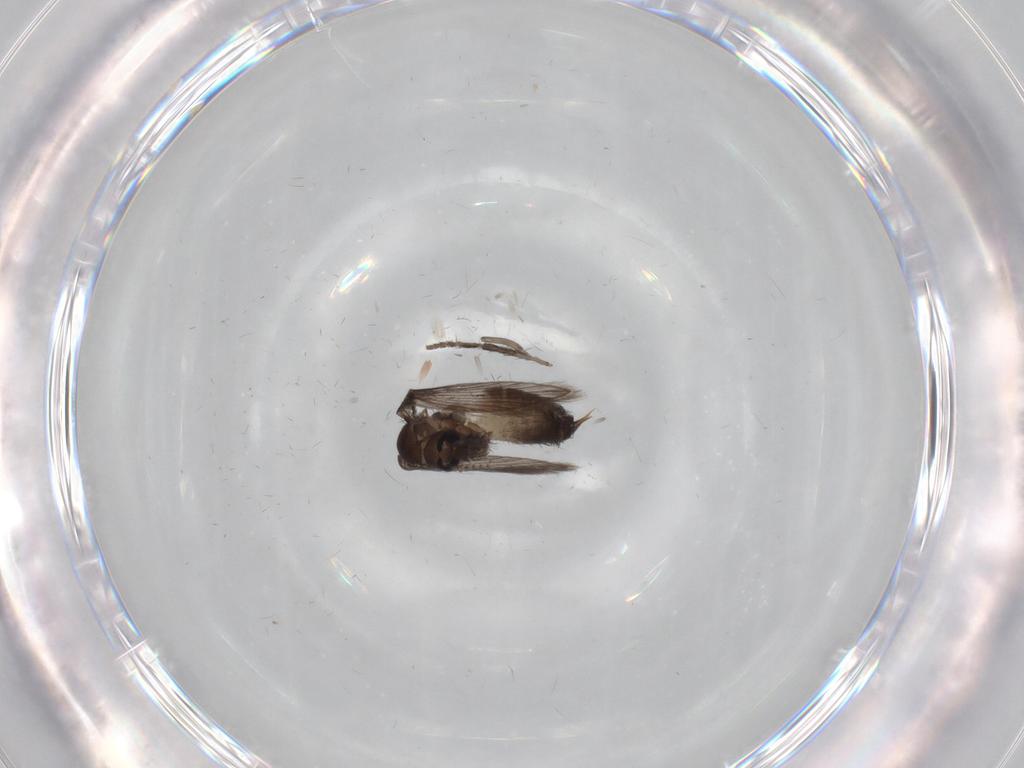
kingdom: Animalia
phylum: Arthropoda
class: Insecta
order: Diptera
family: Psychodidae
